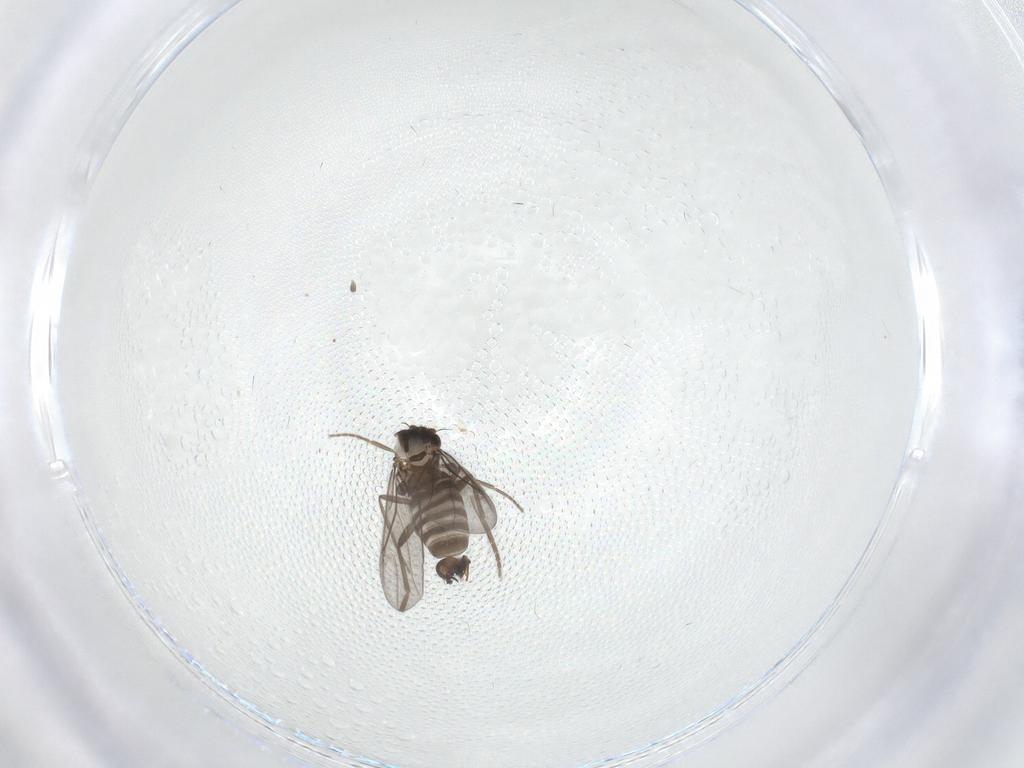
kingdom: Animalia
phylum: Arthropoda
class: Insecta
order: Diptera
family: Phoridae
